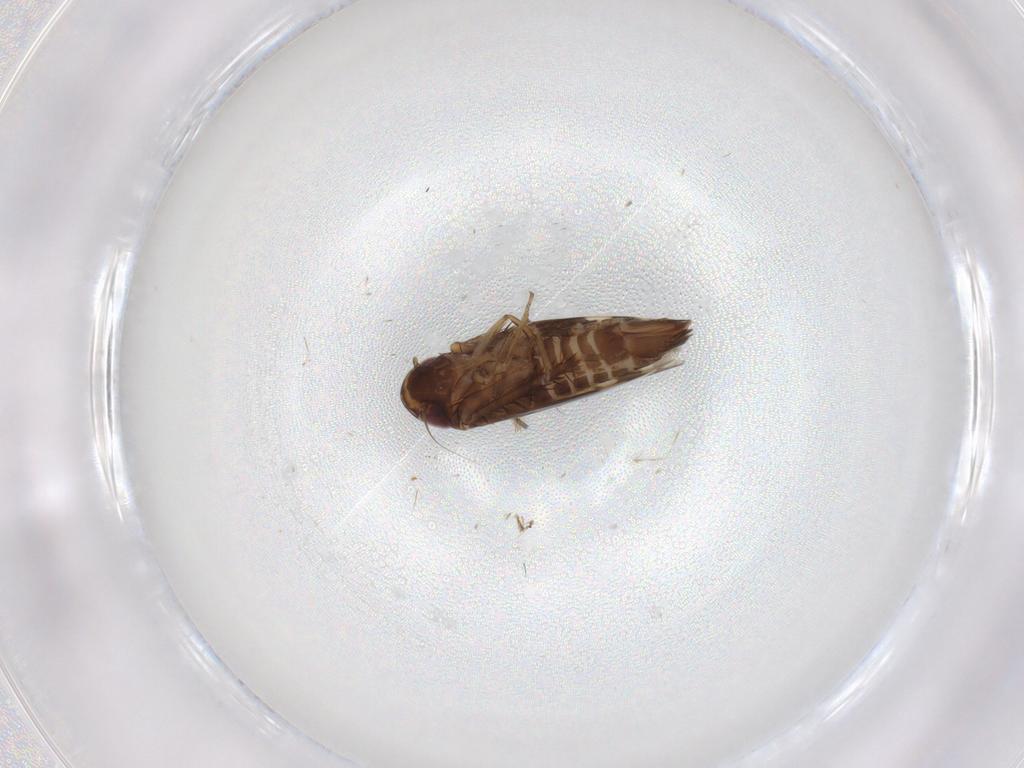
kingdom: Animalia
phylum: Arthropoda
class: Insecta
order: Hemiptera
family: Cicadellidae
